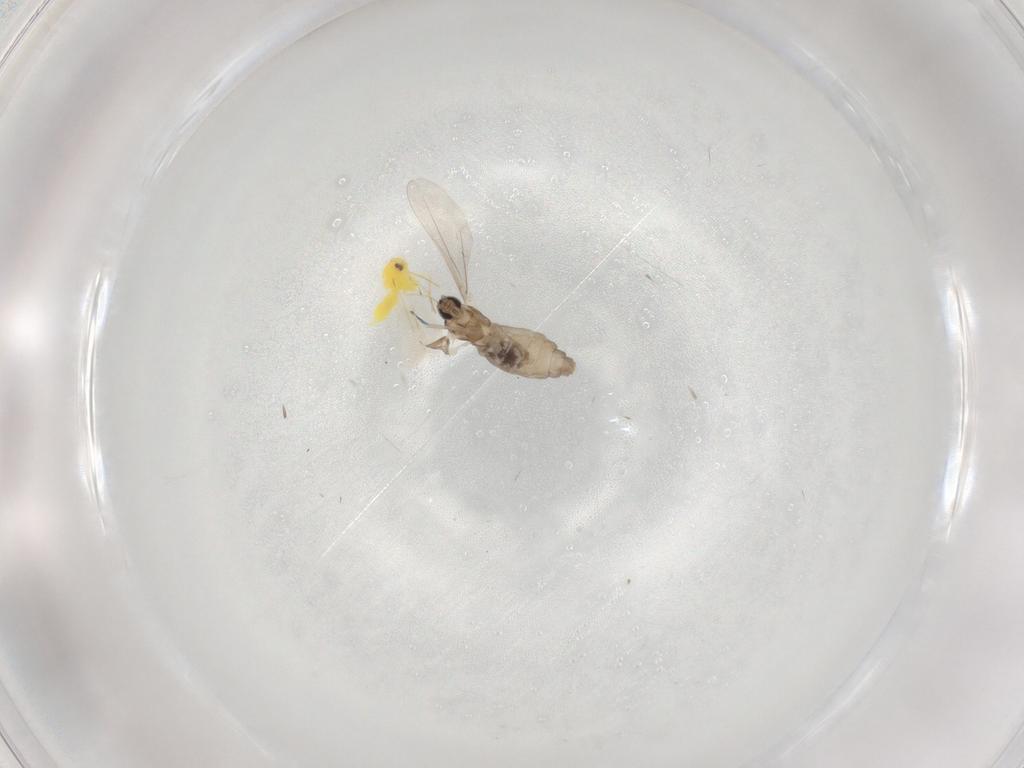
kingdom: Animalia
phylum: Arthropoda
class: Insecta
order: Diptera
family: Cecidomyiidae
